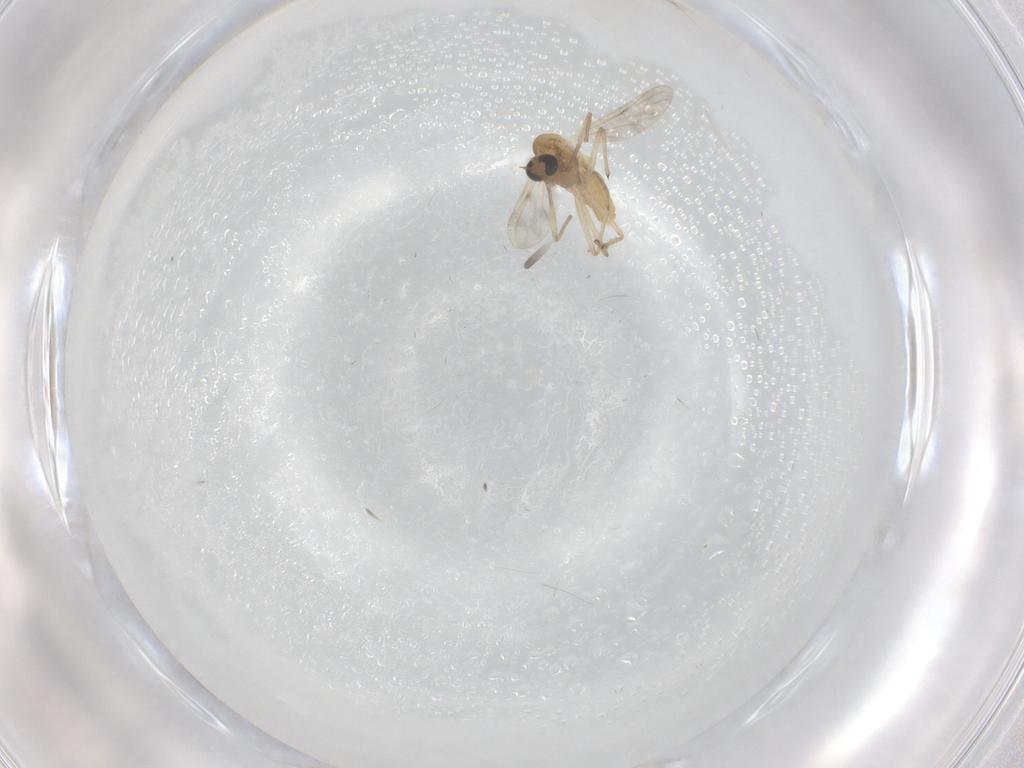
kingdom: Animalia
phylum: Arthropoda
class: Insecta
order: Diptera
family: Chironomidae
